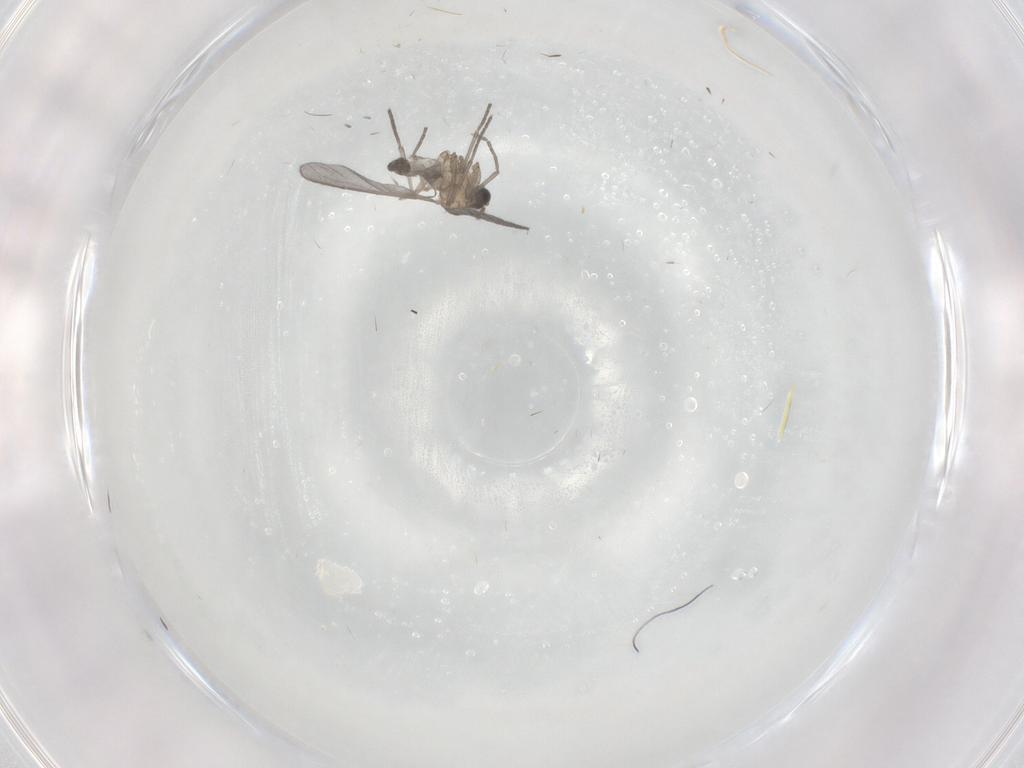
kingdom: Animalia
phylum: Arthropoda
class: Insecta
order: Diptera
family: Sciaridae
